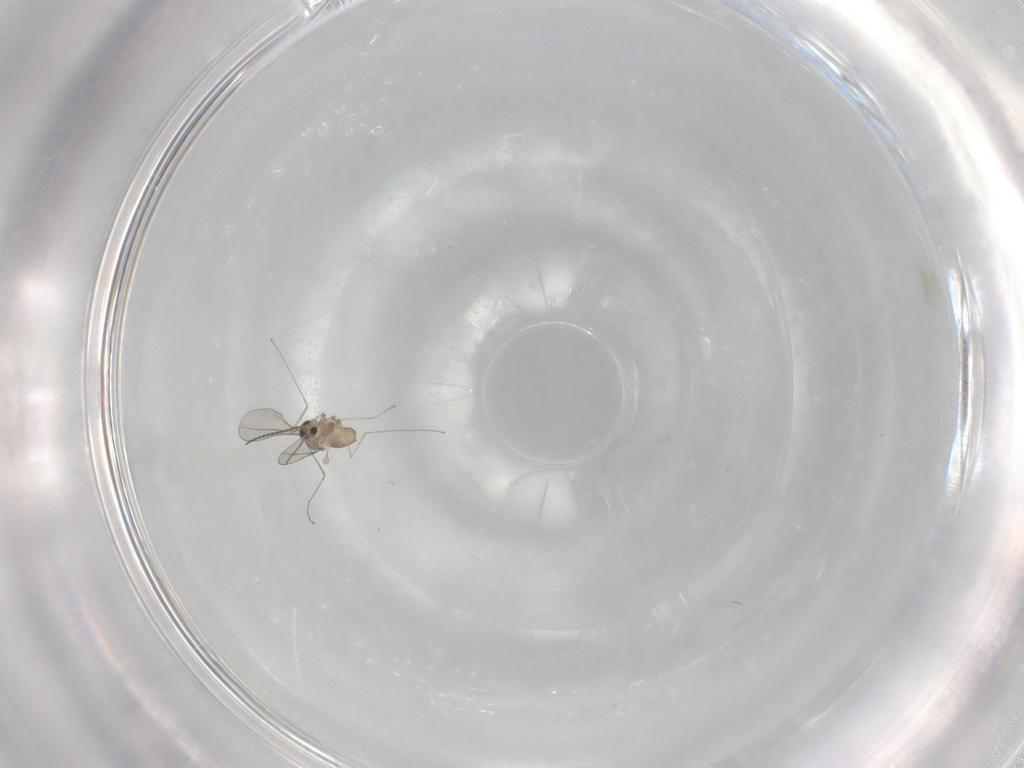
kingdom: Animalia
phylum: Arthropoda
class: Insecta
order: Diptera
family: Cecidomyiidae
